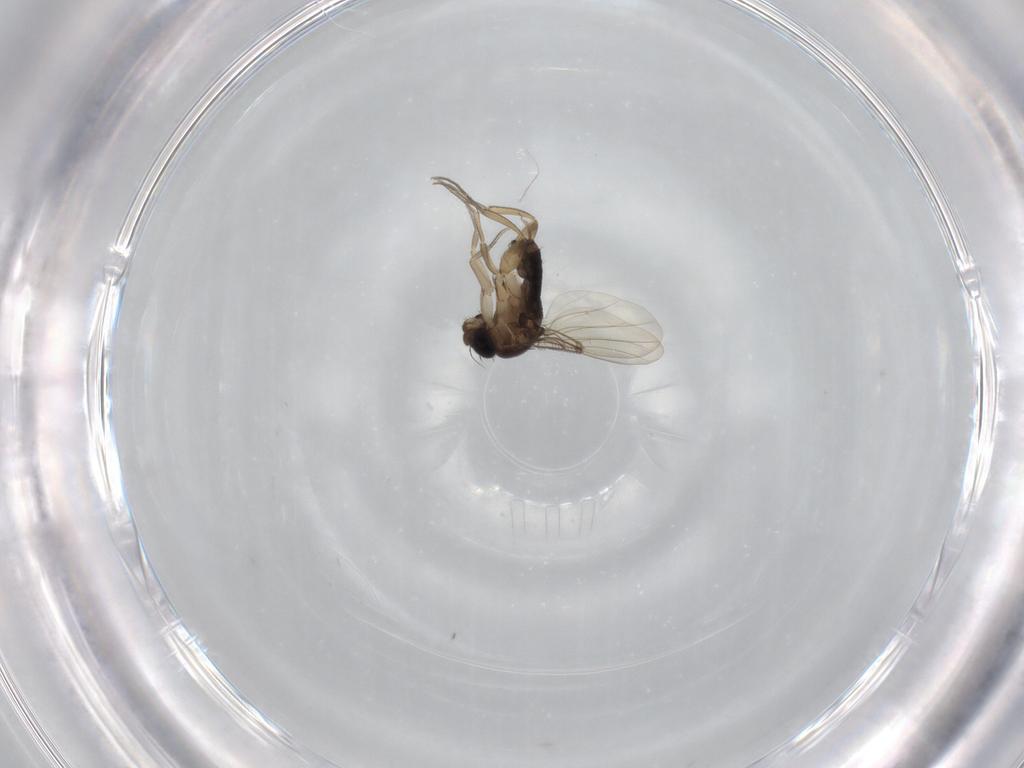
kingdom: Animalia
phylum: Arthropoda
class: Insecta
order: Diptera
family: Phoridae
